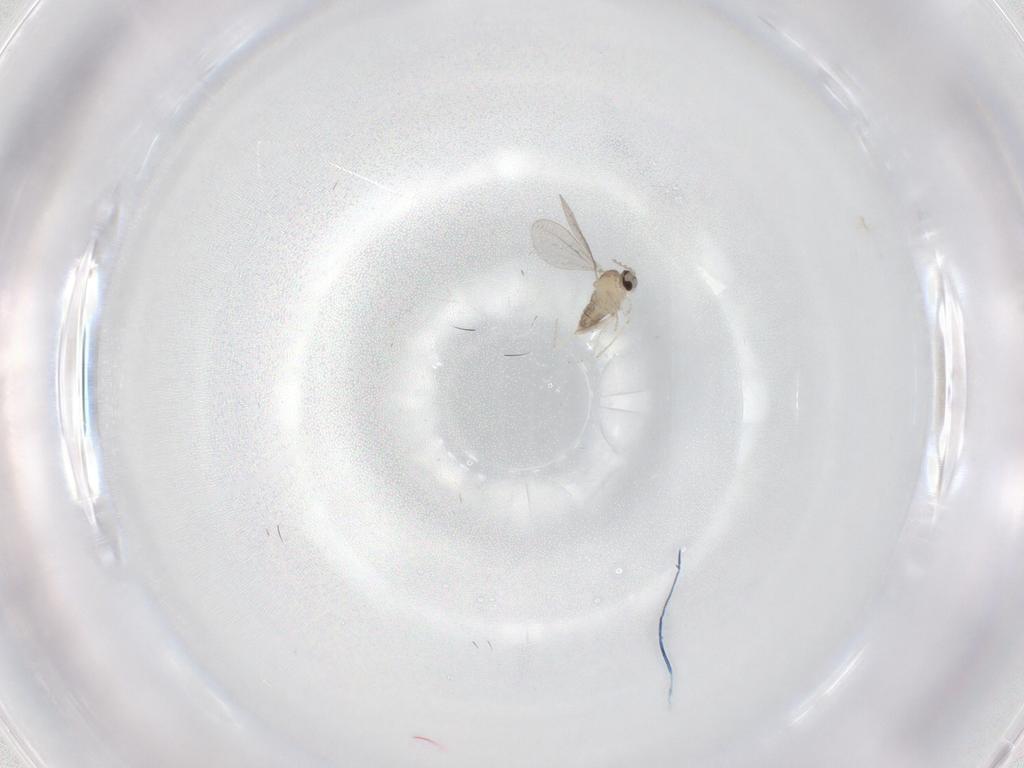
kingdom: Animalia
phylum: Arthropoda
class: Insecta
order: Diptera
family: Cecidomyiidae
